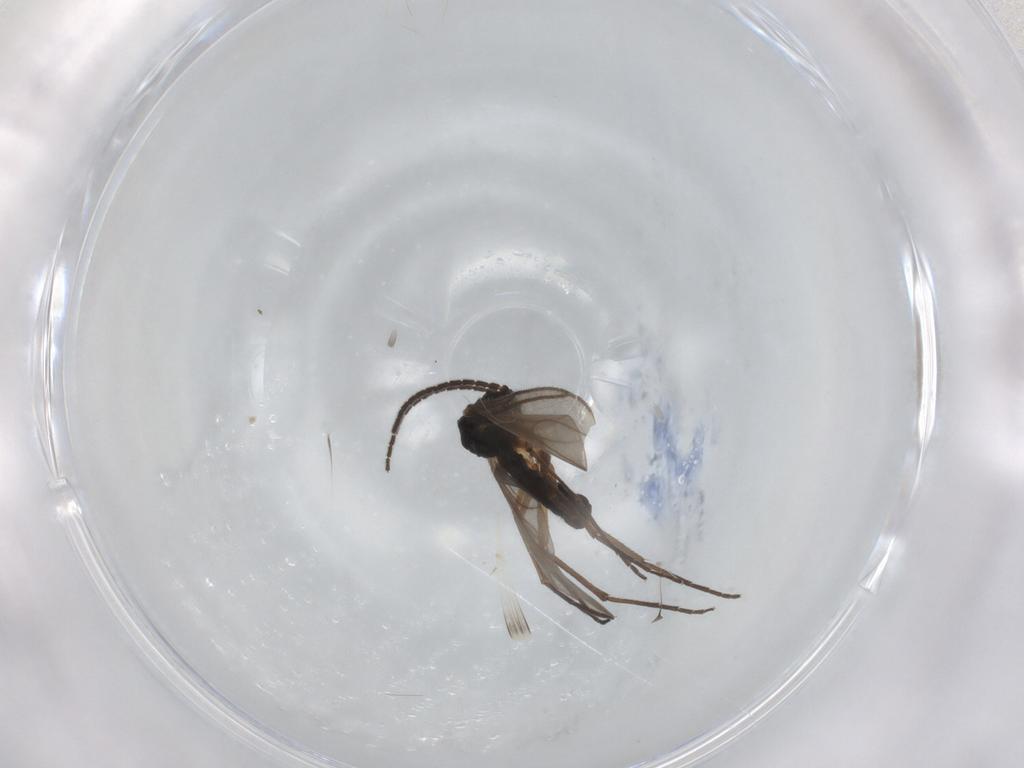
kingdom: Animalia
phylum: Arthropoda
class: Insecta
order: Diptera
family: Sciaridae
